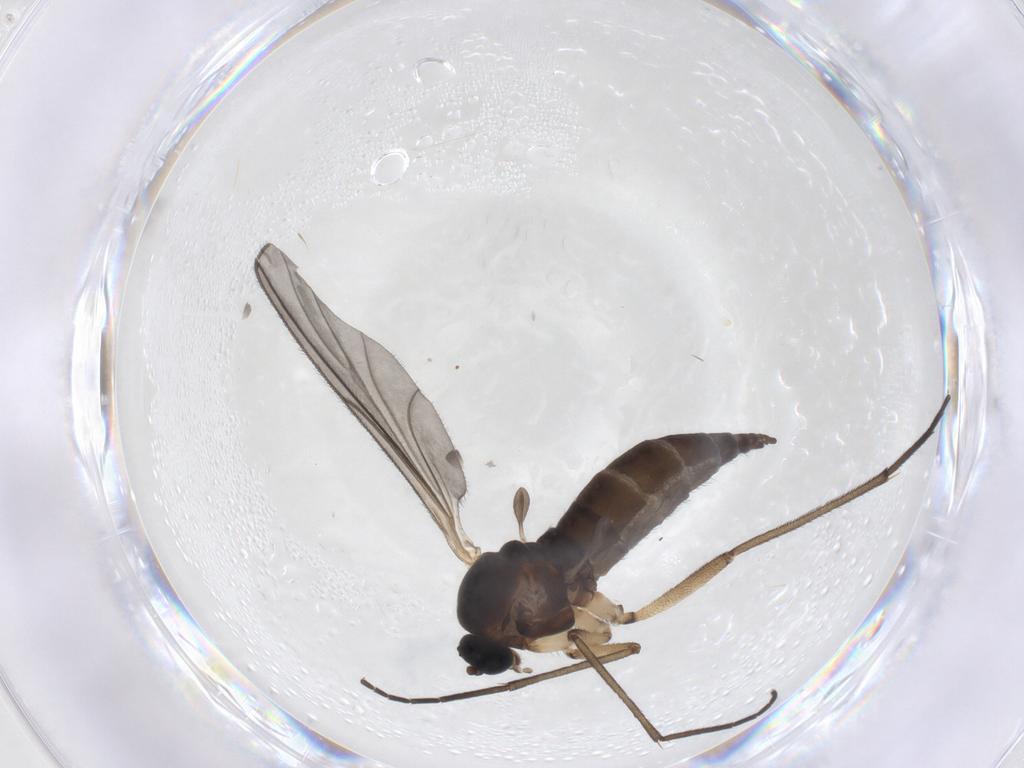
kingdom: Animalia
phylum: Arthropoda
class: Insecta
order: Diptera
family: Sciaridae
